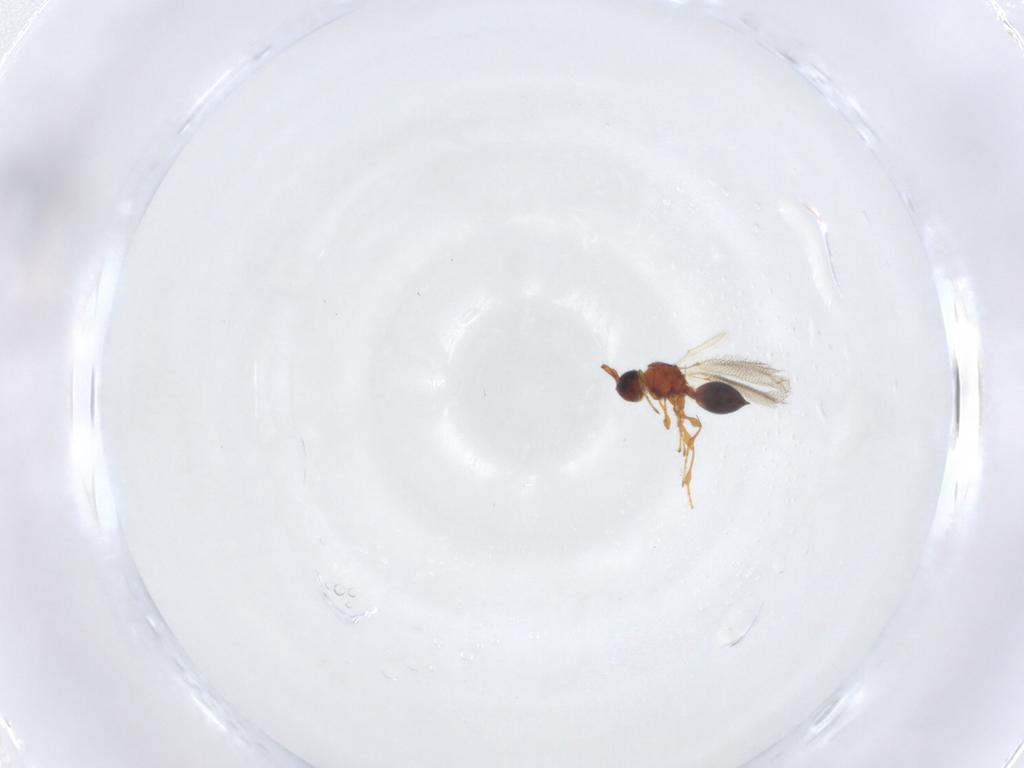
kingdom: Animalia
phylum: Arthropoda
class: Insecta
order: Hymenoptera
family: Diapriidae
